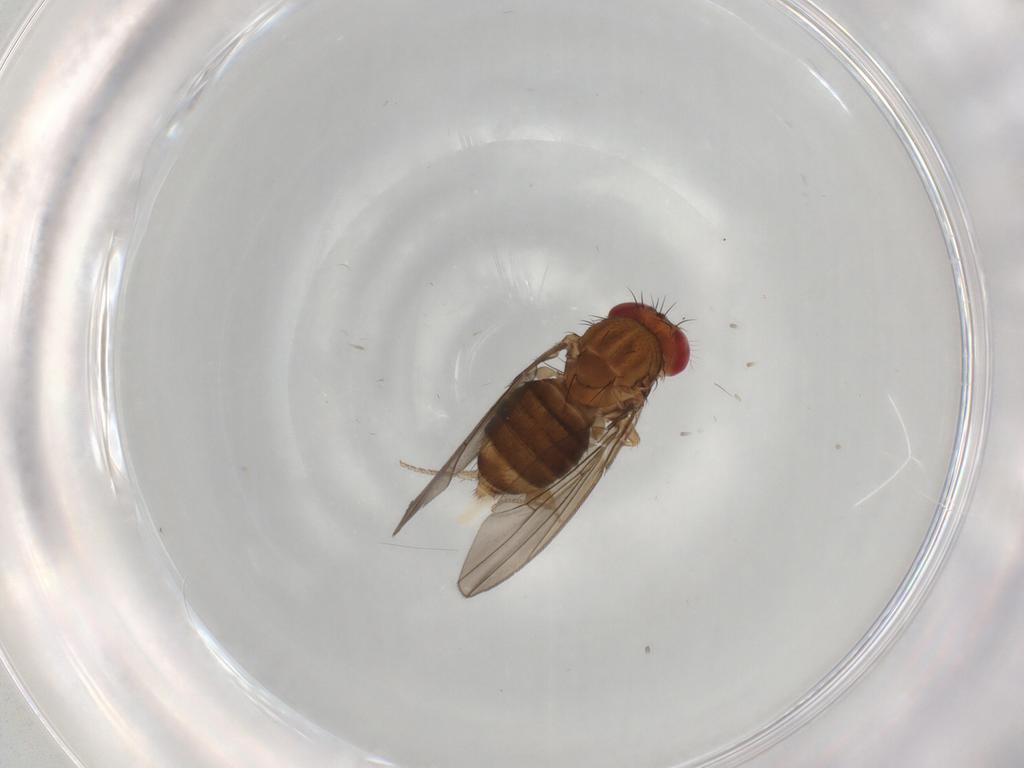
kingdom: Animalia
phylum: Arthropoda
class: Insecta
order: Diptera
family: Drosophilidae
